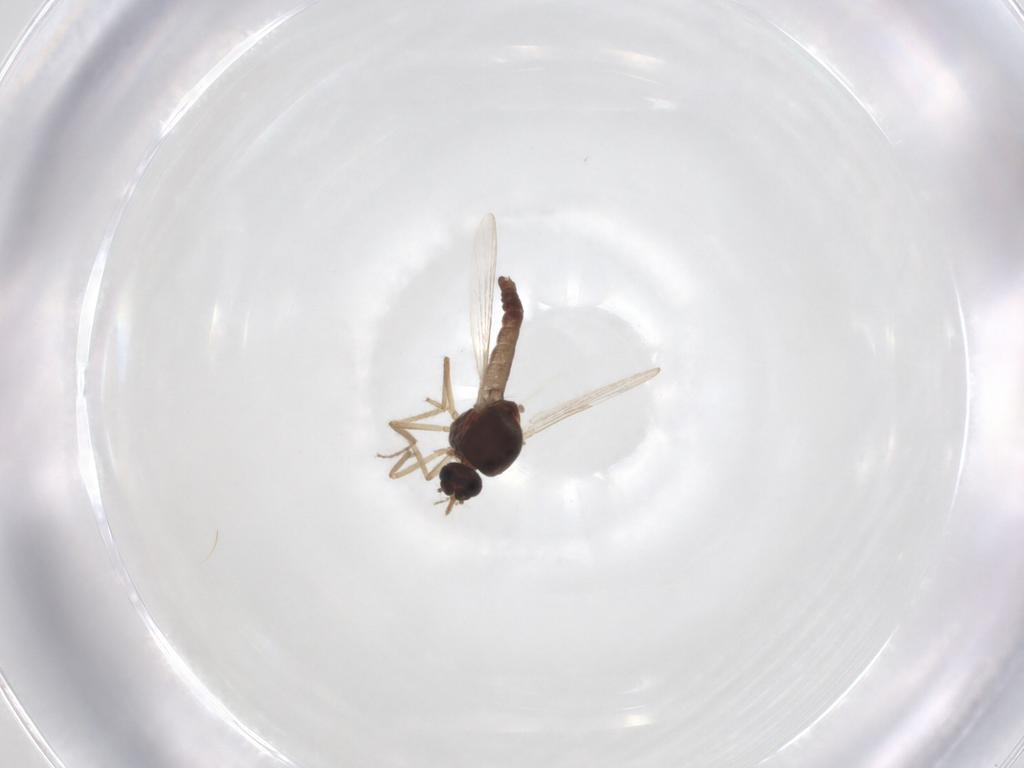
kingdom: Animalia
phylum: Arthropoda
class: Insecta
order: Diptera
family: Ceratopogonidae
